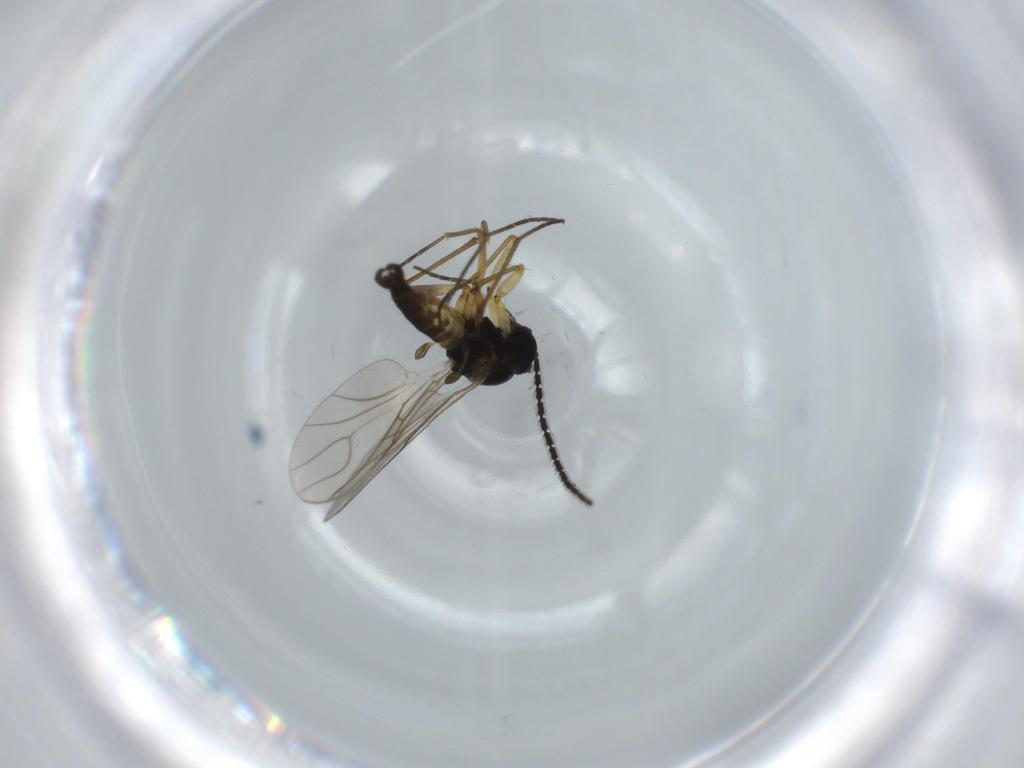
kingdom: Animalia
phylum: Arthropoda
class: Insecta
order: Diptera
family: Sciaridae
